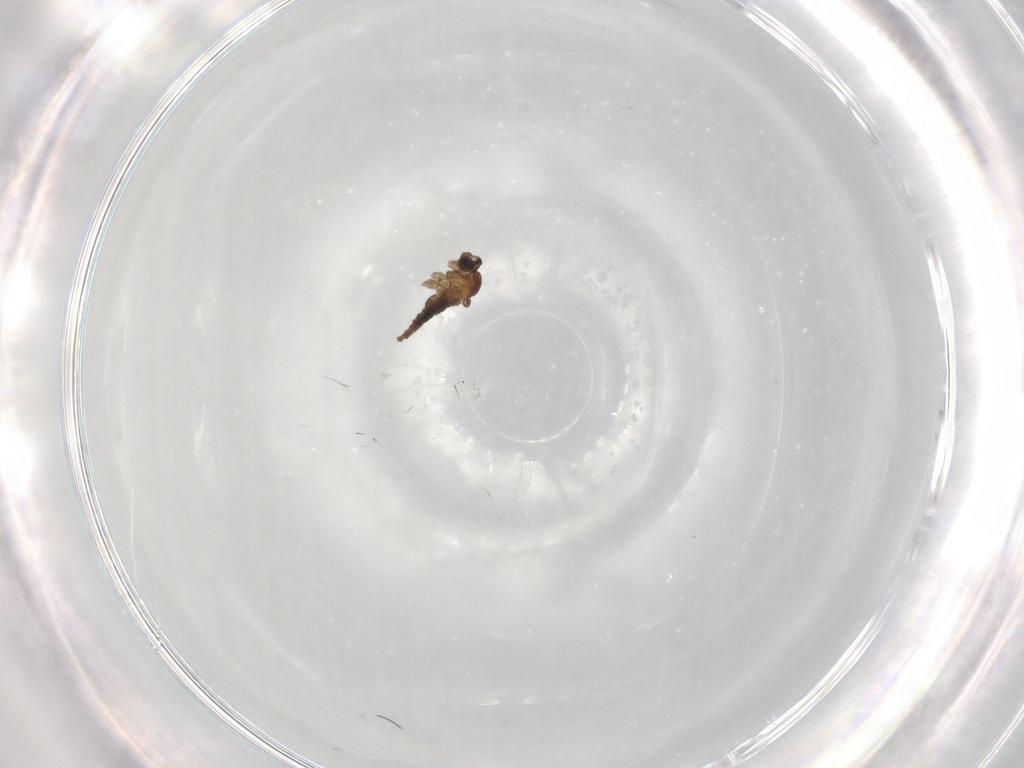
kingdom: Animalia
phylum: Arthropoda
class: Insecta
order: Diptera
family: Cecidomyiidae
